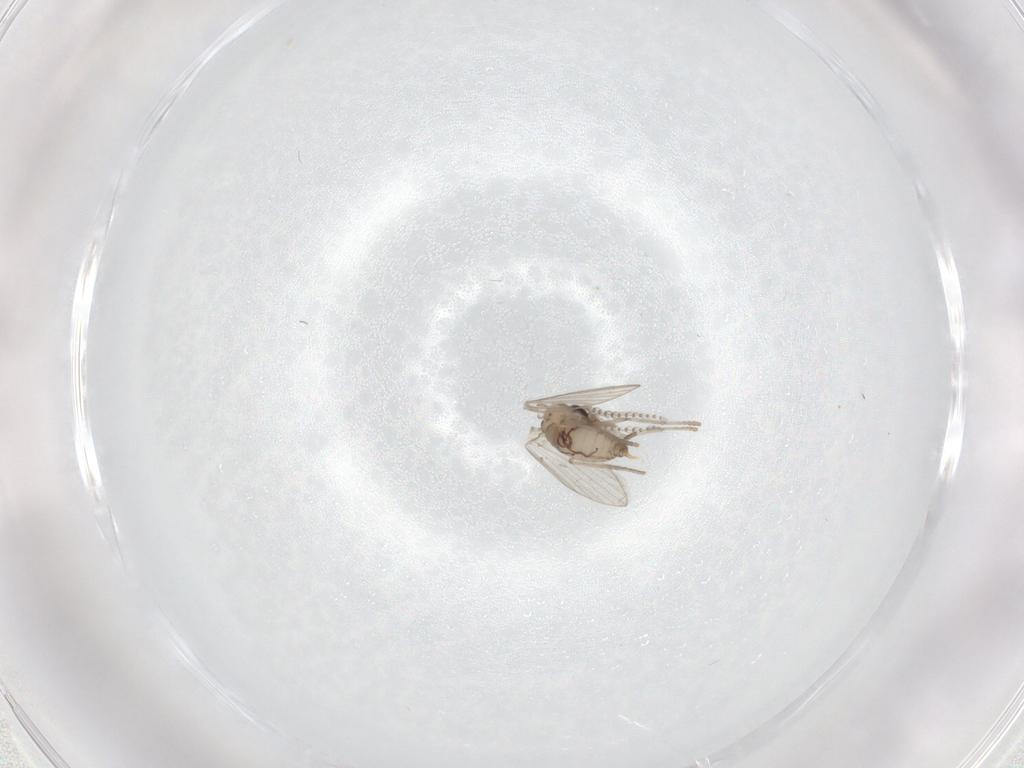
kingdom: Animalia
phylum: Arthropoda
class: Insecta
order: Diptera
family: Psychodidae
